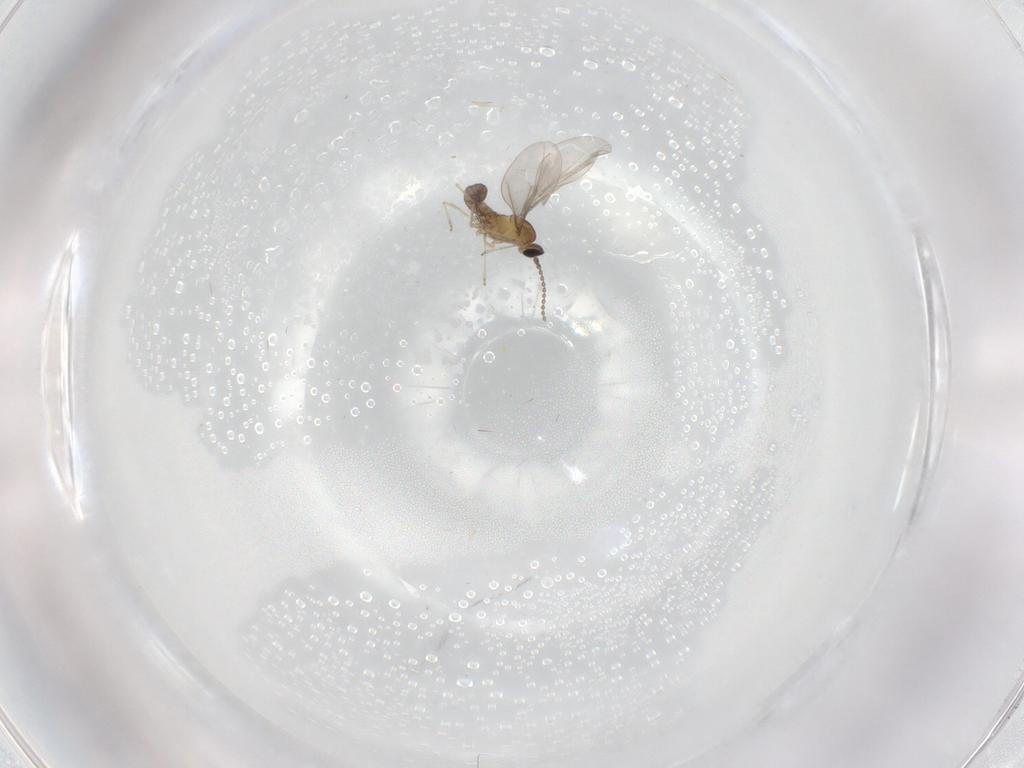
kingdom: Animalia
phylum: Arthropoda
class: Insecta
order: Diptera
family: Cecidomyiidae
